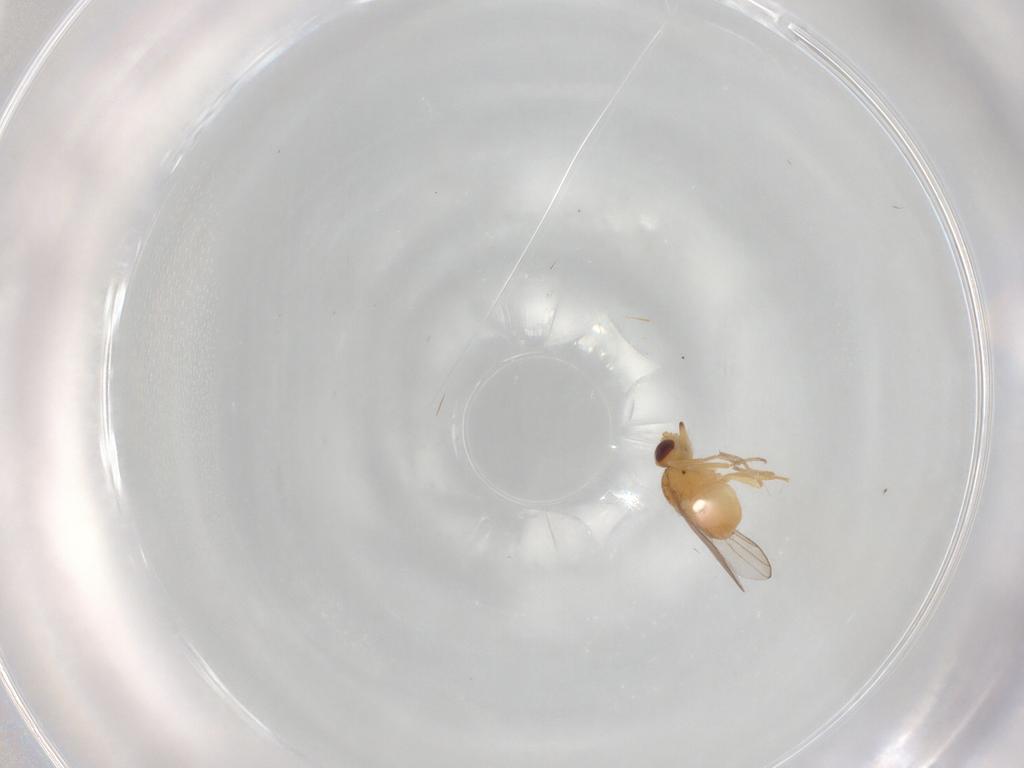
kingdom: Animalia
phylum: Arthropoda
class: Insecta
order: Diptera
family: Chloropidae
